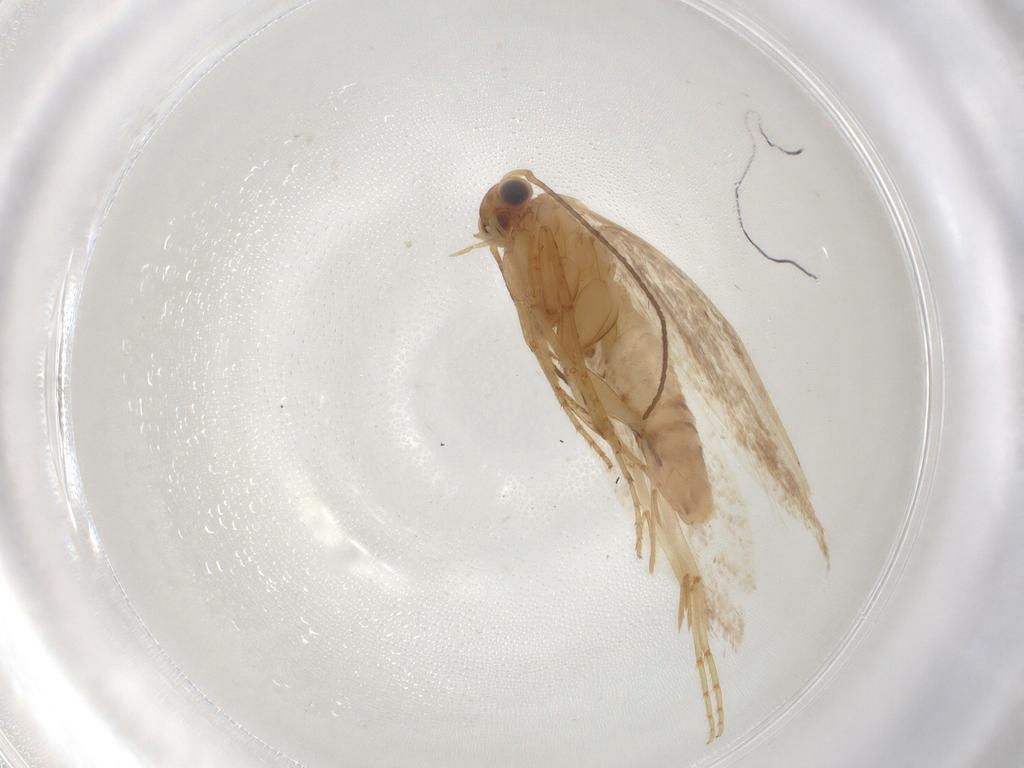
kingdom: Animalia
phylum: Arthropoda
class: Insecta
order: Lepidoptera
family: Argyresthiidae
